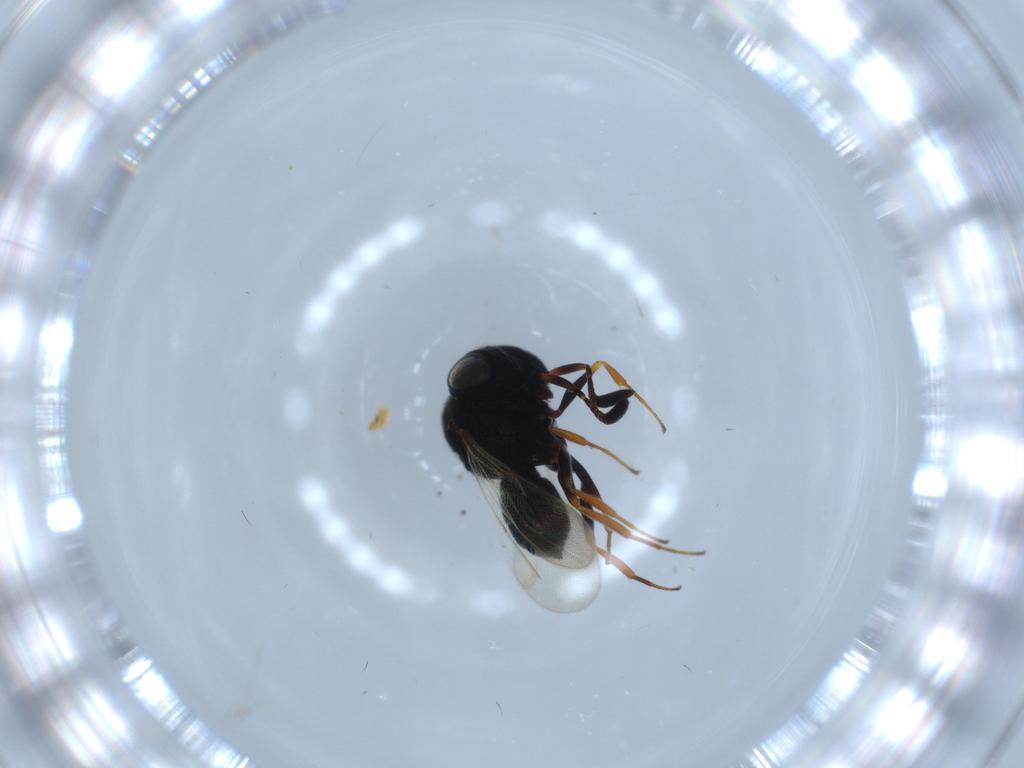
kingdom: Animalia
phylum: Arthropoda
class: Insecta
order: Hymenoptera
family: Scelionidae
